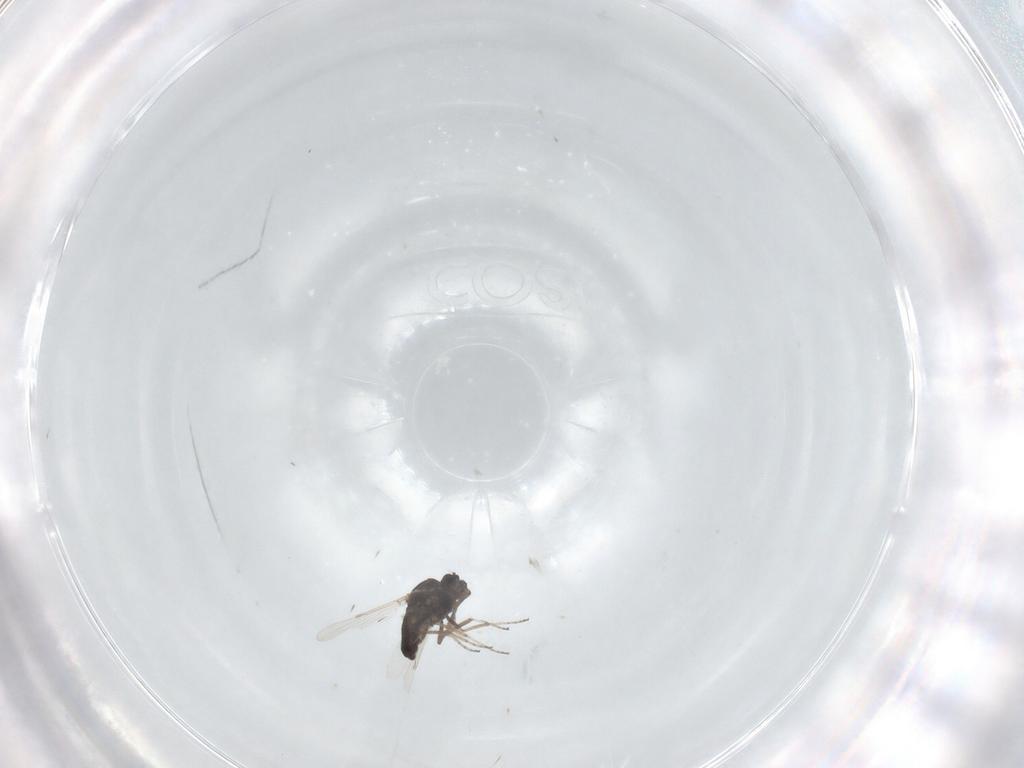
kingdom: Animalia
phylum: Arthropoda
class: Insecta
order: Diptera
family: Ceratopogonidae
